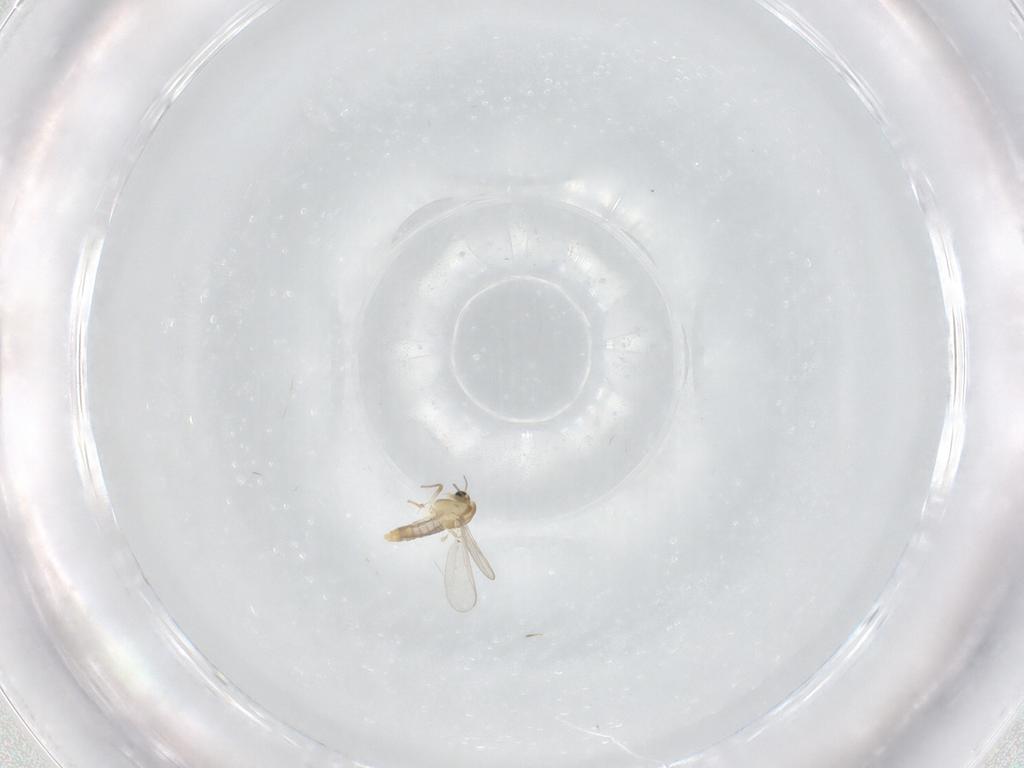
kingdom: Animalia
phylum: Arthropoda
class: Insecta
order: Diptera
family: Chironomidae
